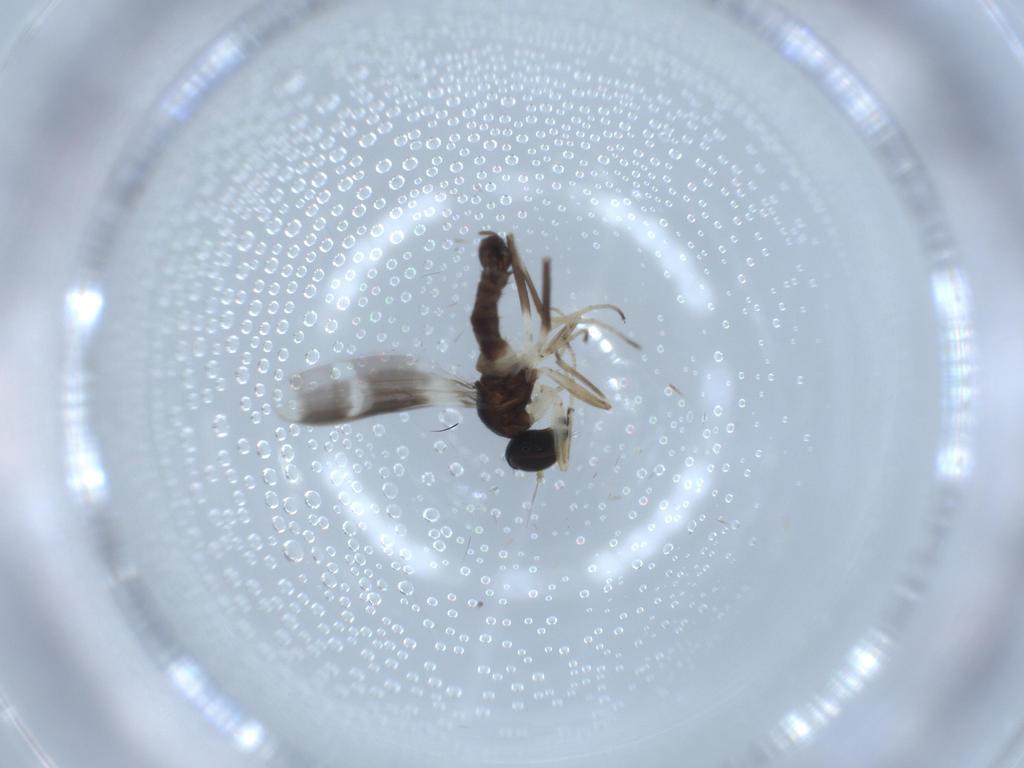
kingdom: Animalia
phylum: Arthropoda
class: Insecta
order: Diptera
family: Hybotidae
